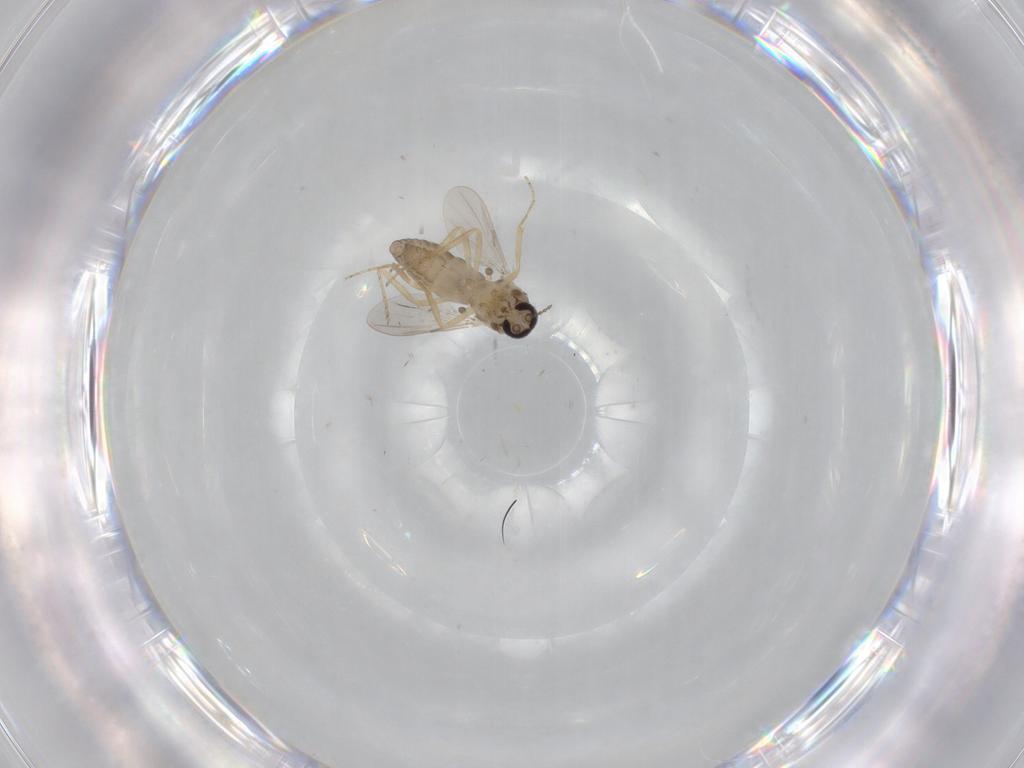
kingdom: Animalia
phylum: Arthropoda
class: Insecta
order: Diptera
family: Ceratopogonidae
